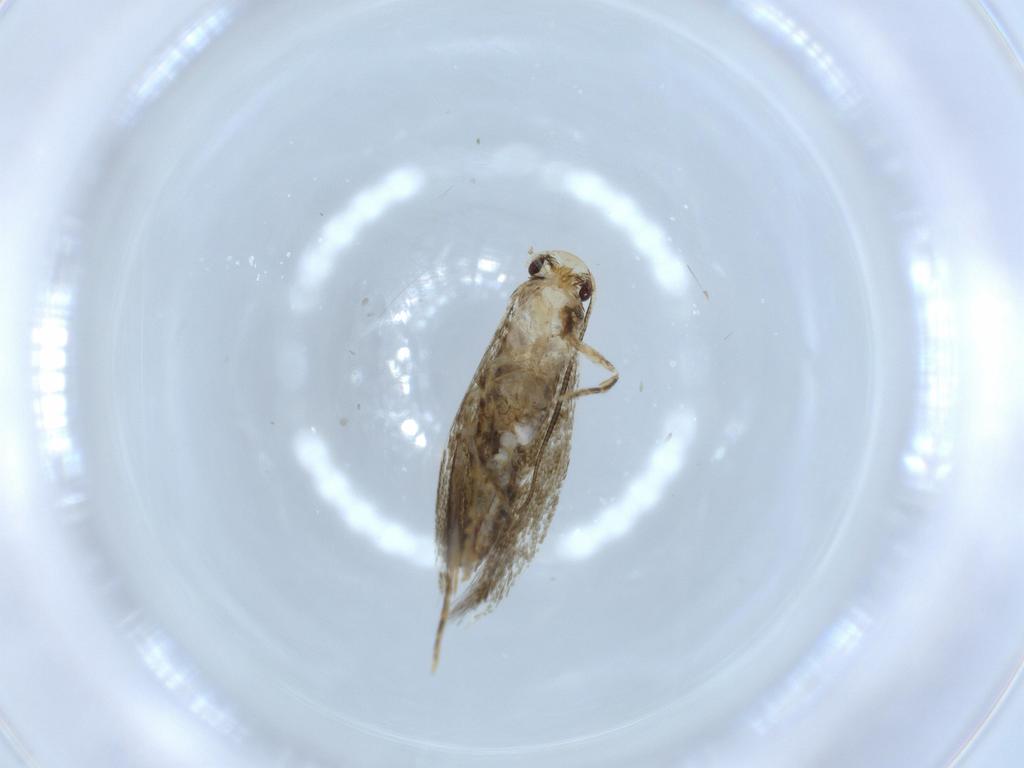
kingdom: Animalia
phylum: Arthropoda
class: Insecta
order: Lepidoptera
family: Tineidae
